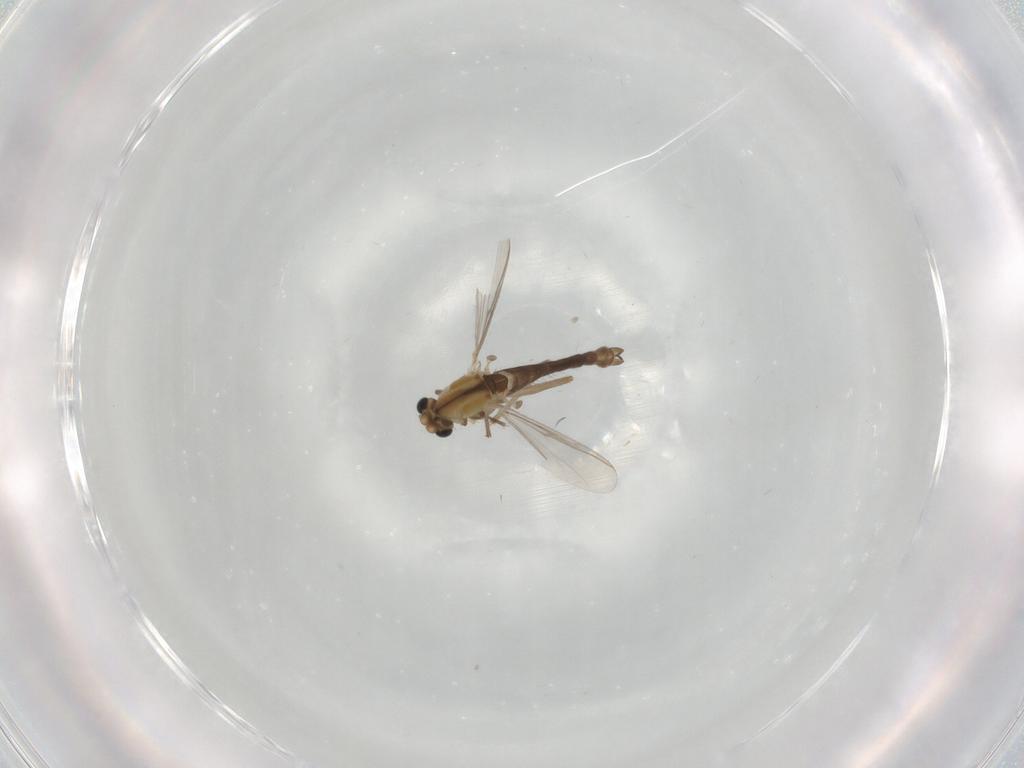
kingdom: Animalia
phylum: Arthropoda
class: Insecta
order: Diptera
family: Chironomidae
